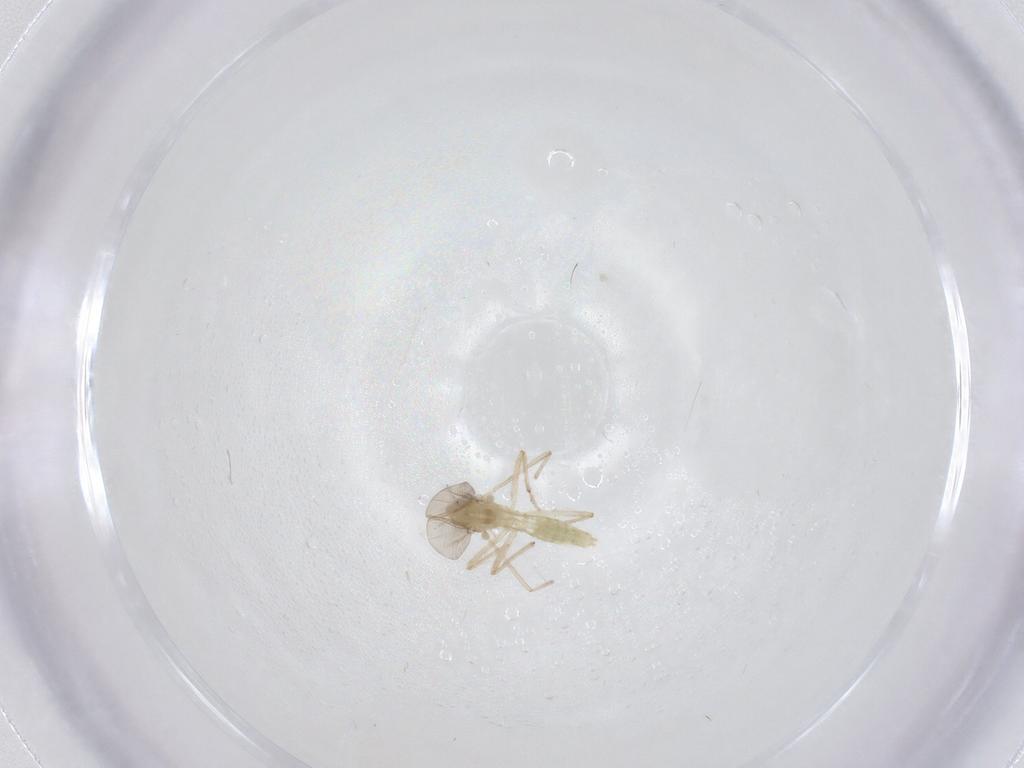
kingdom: Animalia
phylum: Arthropoda
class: Insecta
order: Diptera
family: Chironomidae
